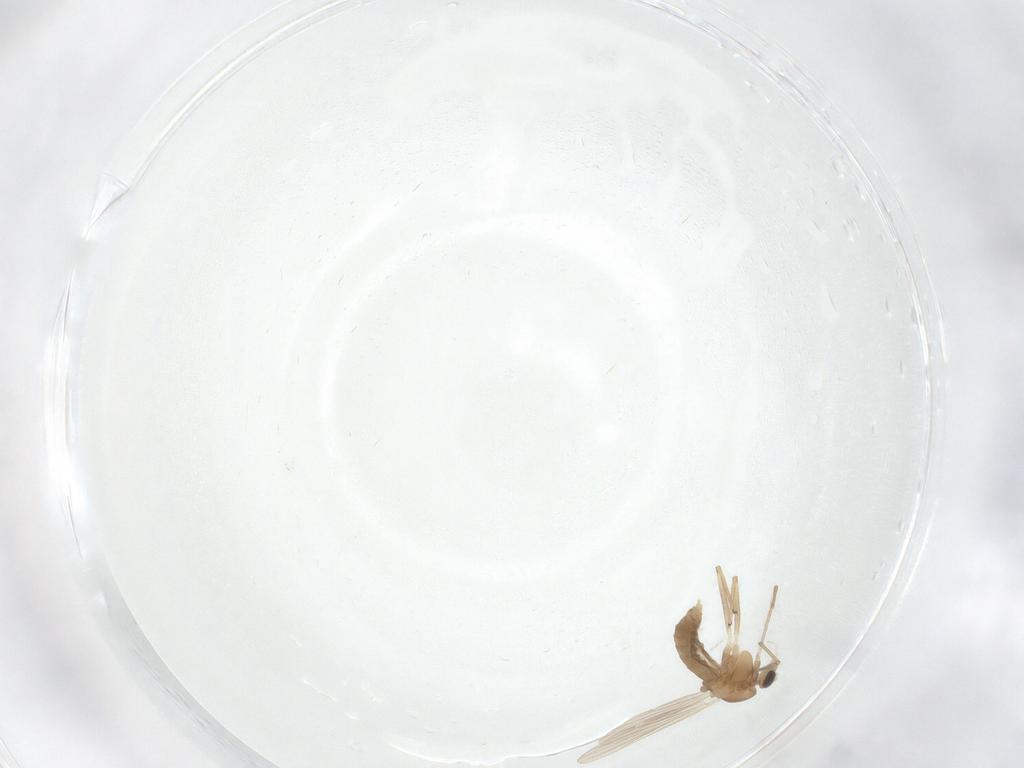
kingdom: Animalia
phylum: Arthropoda
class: Insecta
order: Diptera
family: Chironomidae
